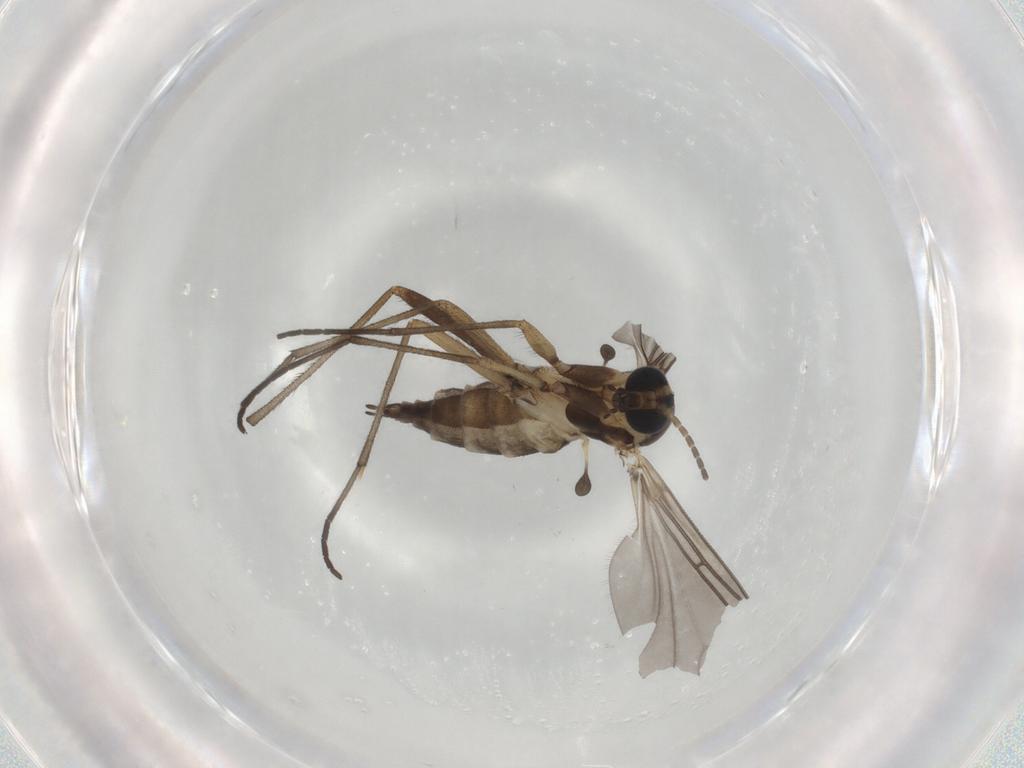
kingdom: Animalia
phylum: Arthropoda
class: Insecta
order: Diptera
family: Sciaridae
